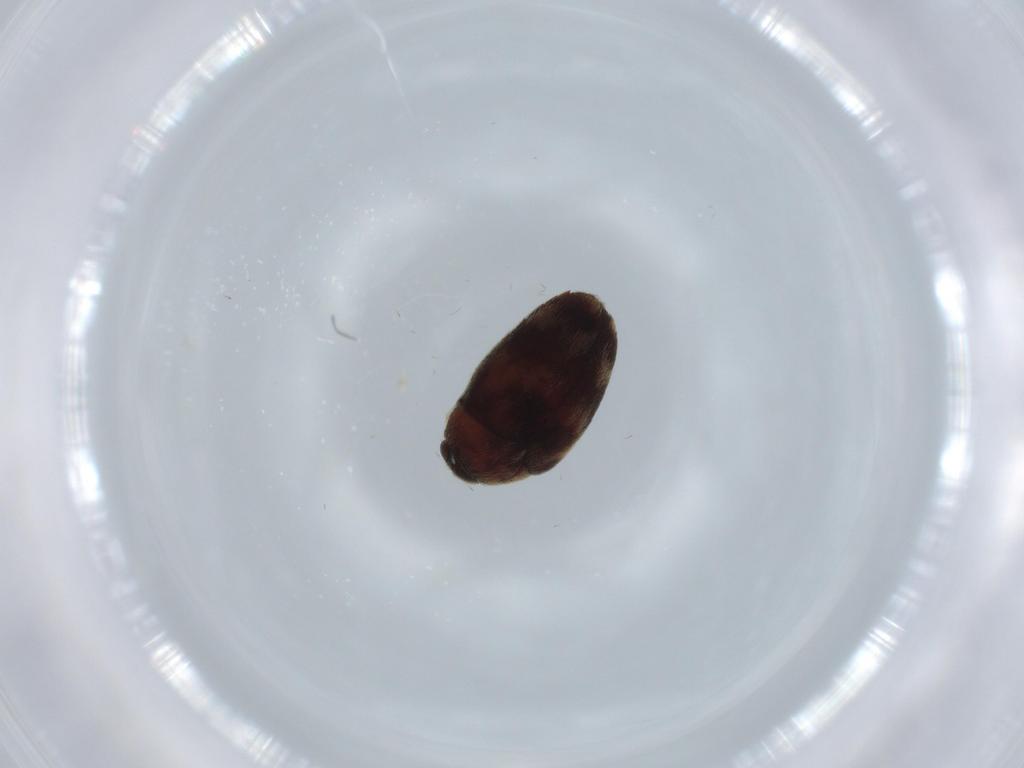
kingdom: Animalia
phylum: Arthropoda
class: Insecta
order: Coleoptera
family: Dermestidae
